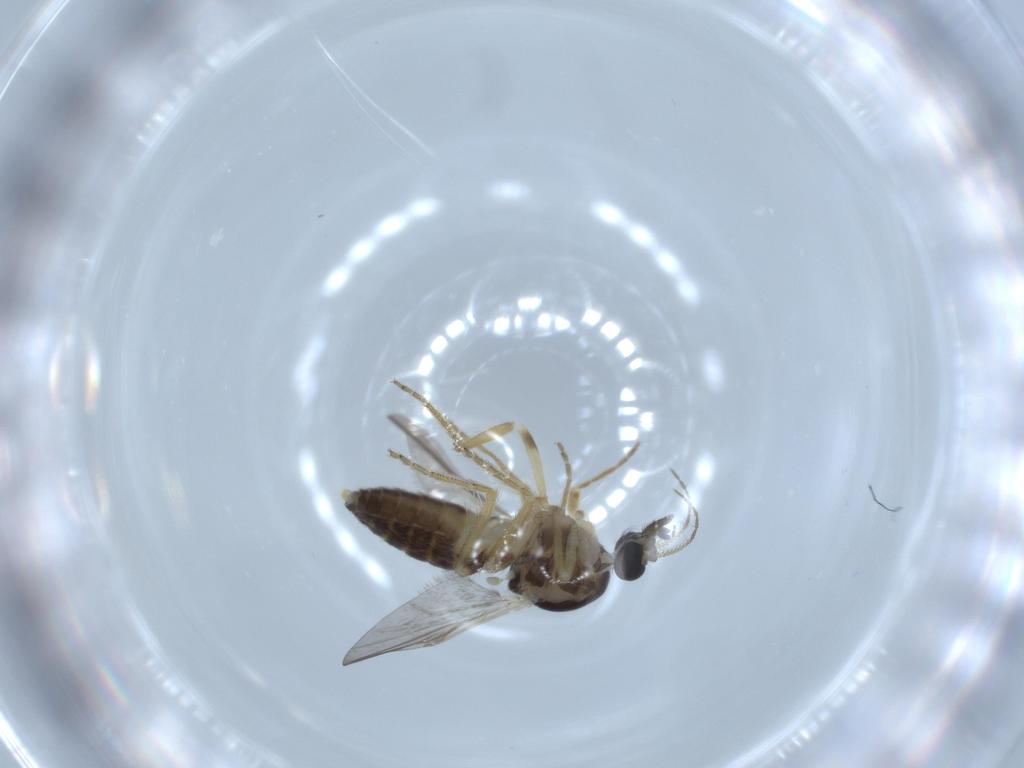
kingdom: Animalia
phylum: Arthropoda
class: Insecta
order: Diptera
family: Ceratopogonidae
